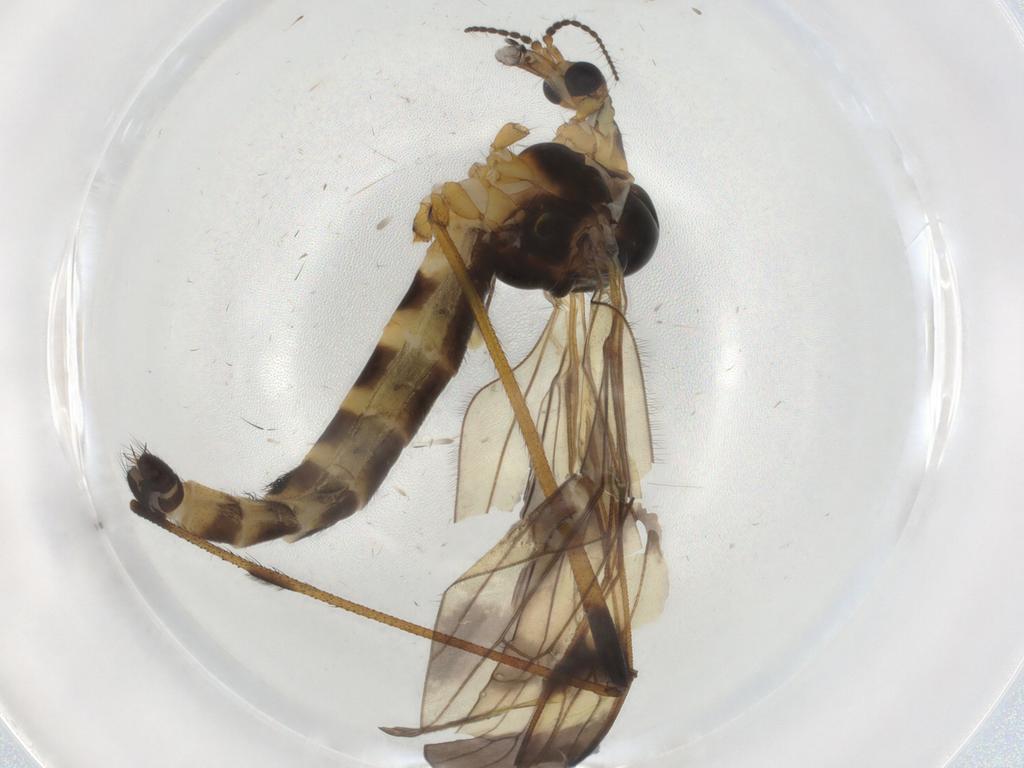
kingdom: Animalia
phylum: Arthropoda
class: Insecta
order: Diptera
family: Limoniidae
